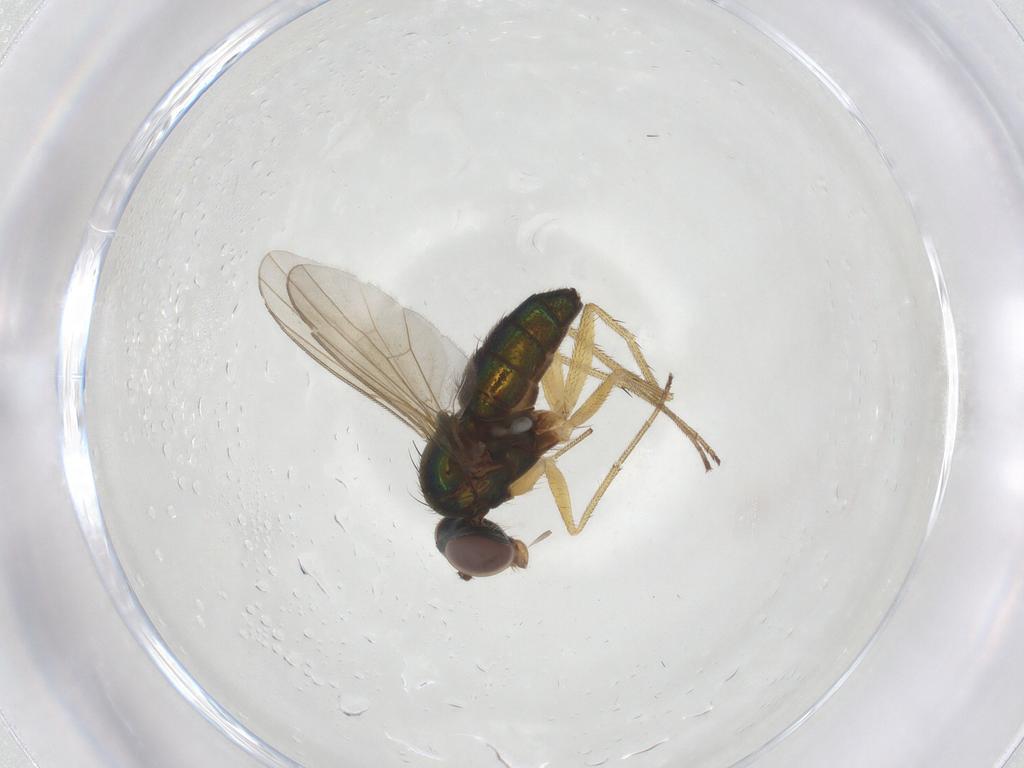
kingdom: Animalia
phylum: Arthropoda
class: Insecta
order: Diptera
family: Dolichopodidae
